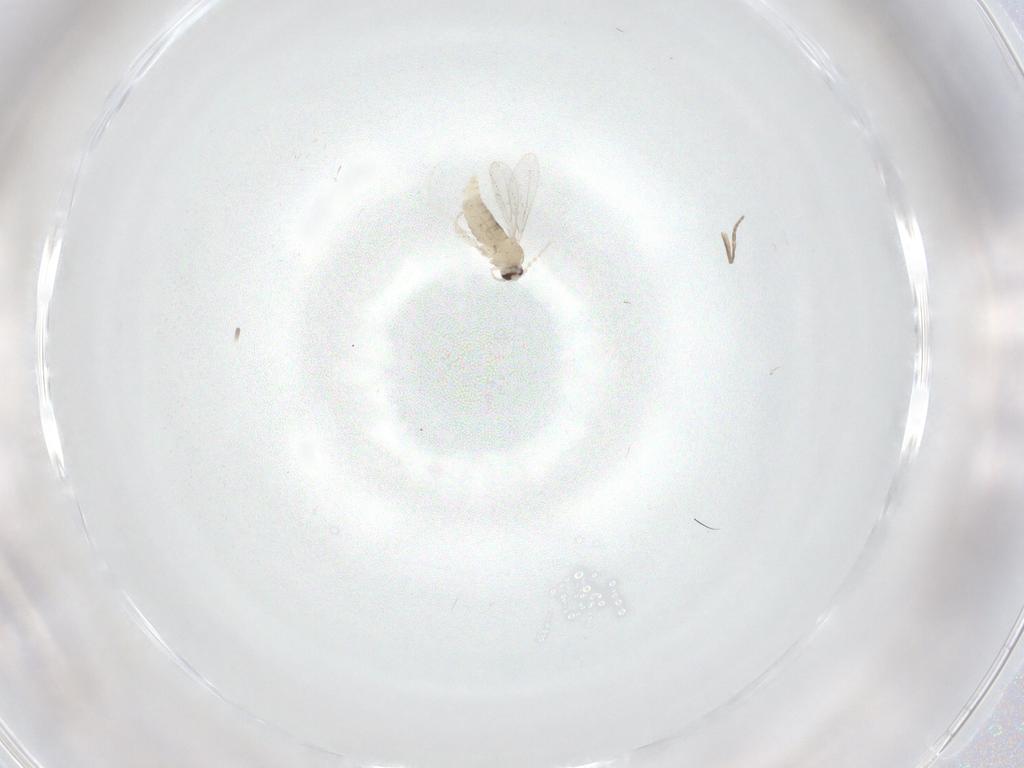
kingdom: Animalia
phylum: Arthropoda
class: Insecta
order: Diptera
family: Cecidomyiidae
